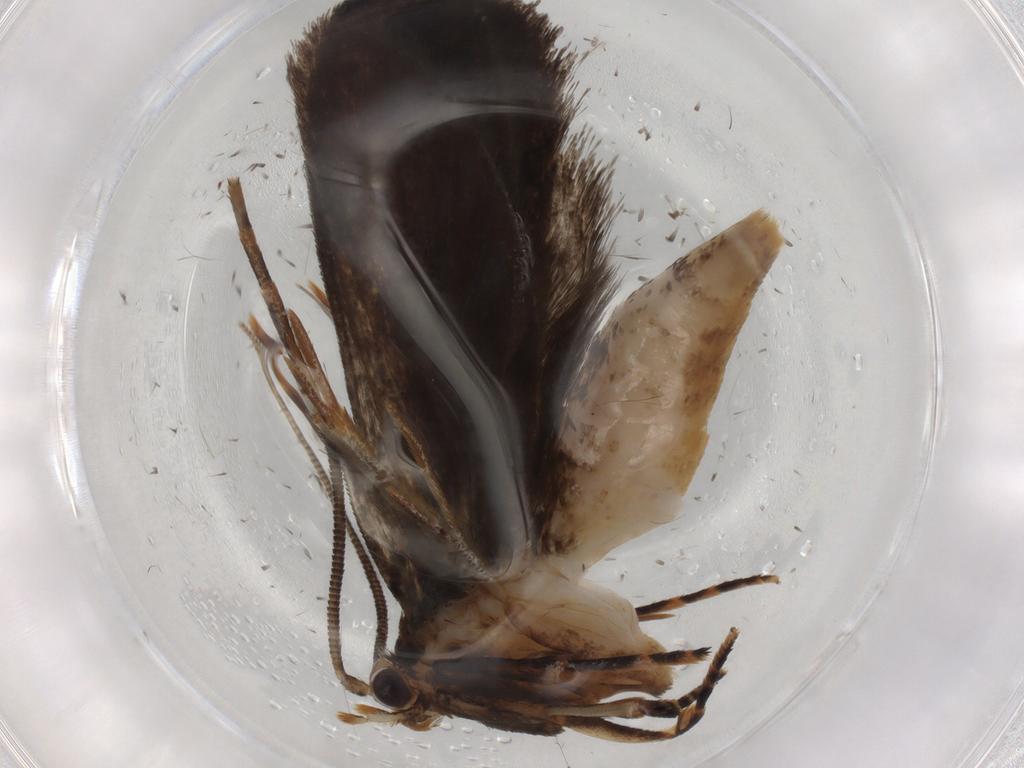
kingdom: Animalia
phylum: Arthropoda
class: Insecta
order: Lepidoptera
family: Tineidae
